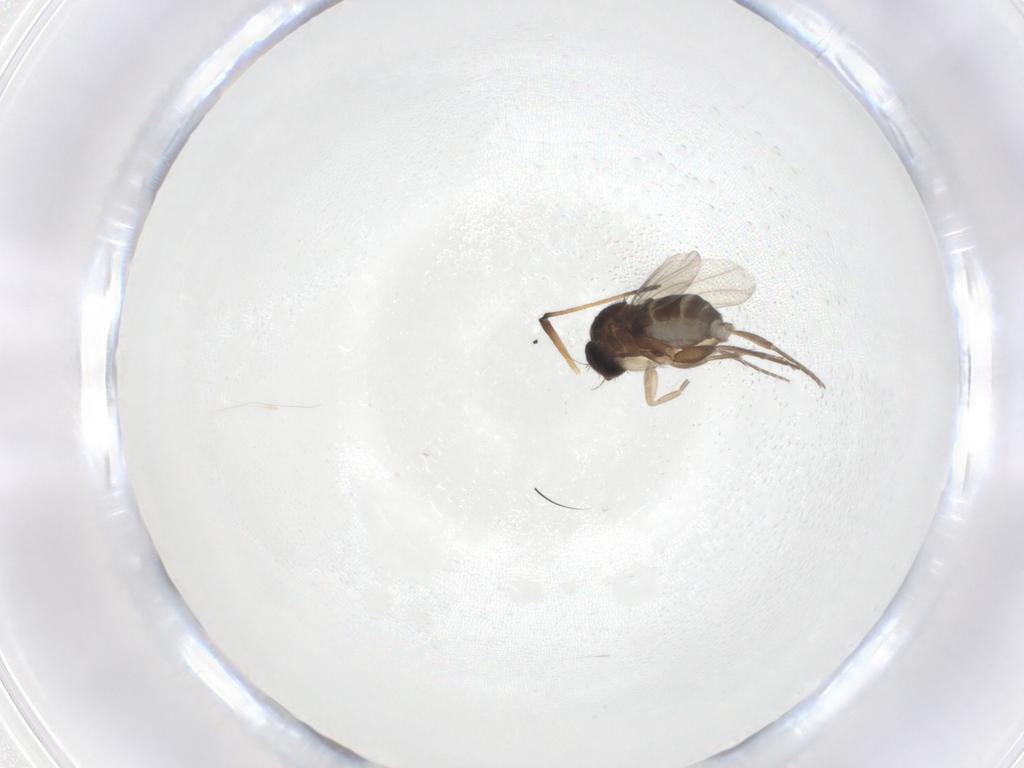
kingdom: Animalia
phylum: Arthropoda
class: Insecta
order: Diptera
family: Phoridae
